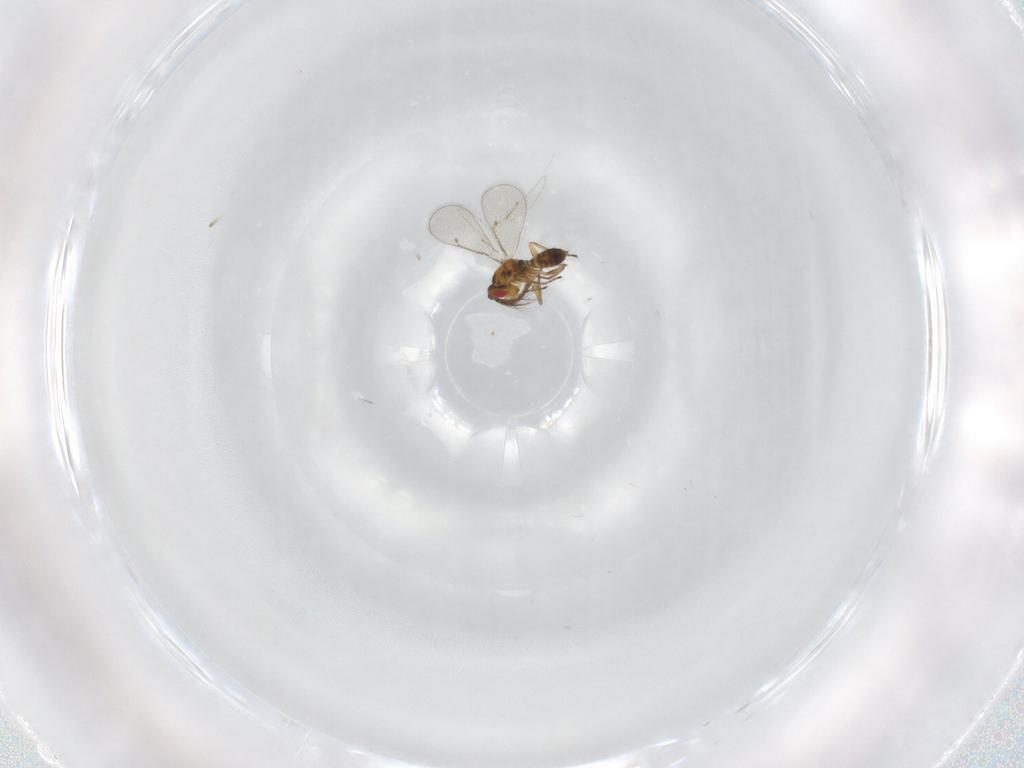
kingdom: Animalia
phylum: Arthropoda
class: Insecta
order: Hymenoptera
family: Eulophidae
